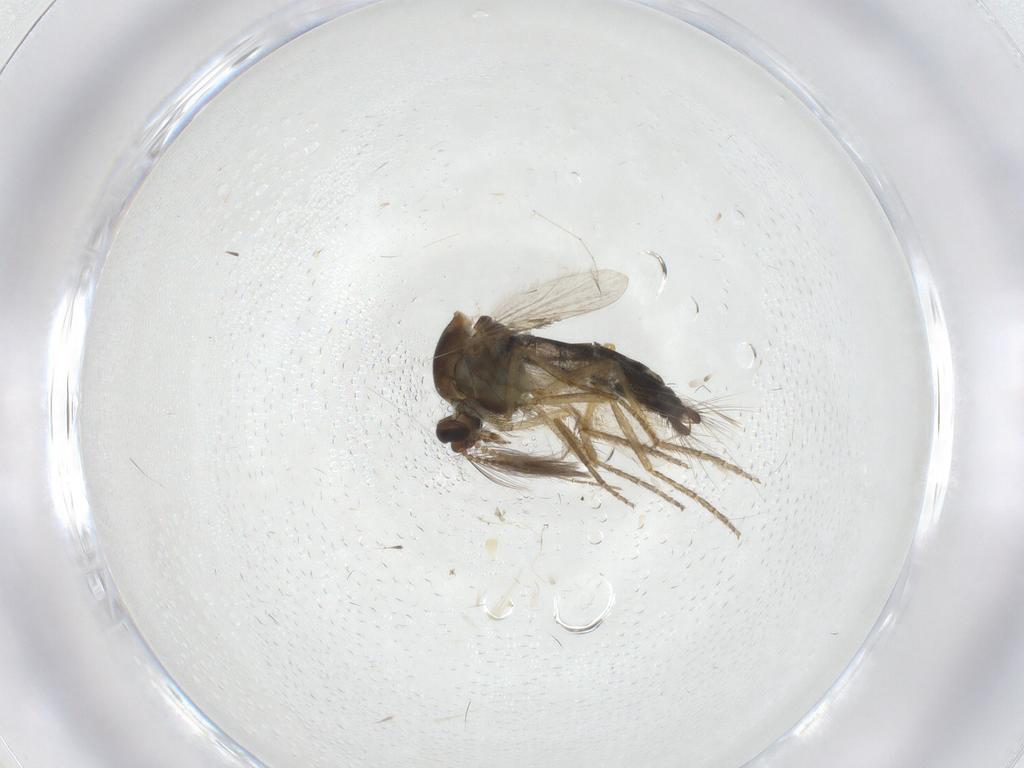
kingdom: Animalia
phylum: Arthropoda
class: Insecta
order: Diptera
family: Ceratopogonidae
